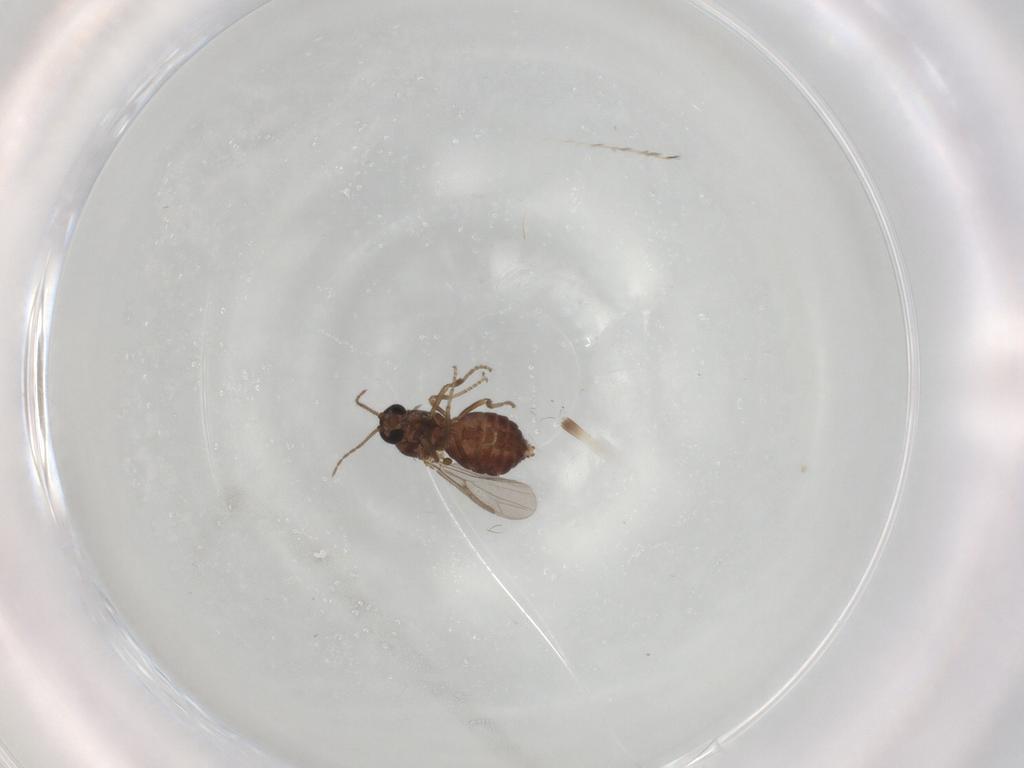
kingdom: Animalia
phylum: Arthropoda
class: Insecta
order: Diptera
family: Ceratopogonidae
